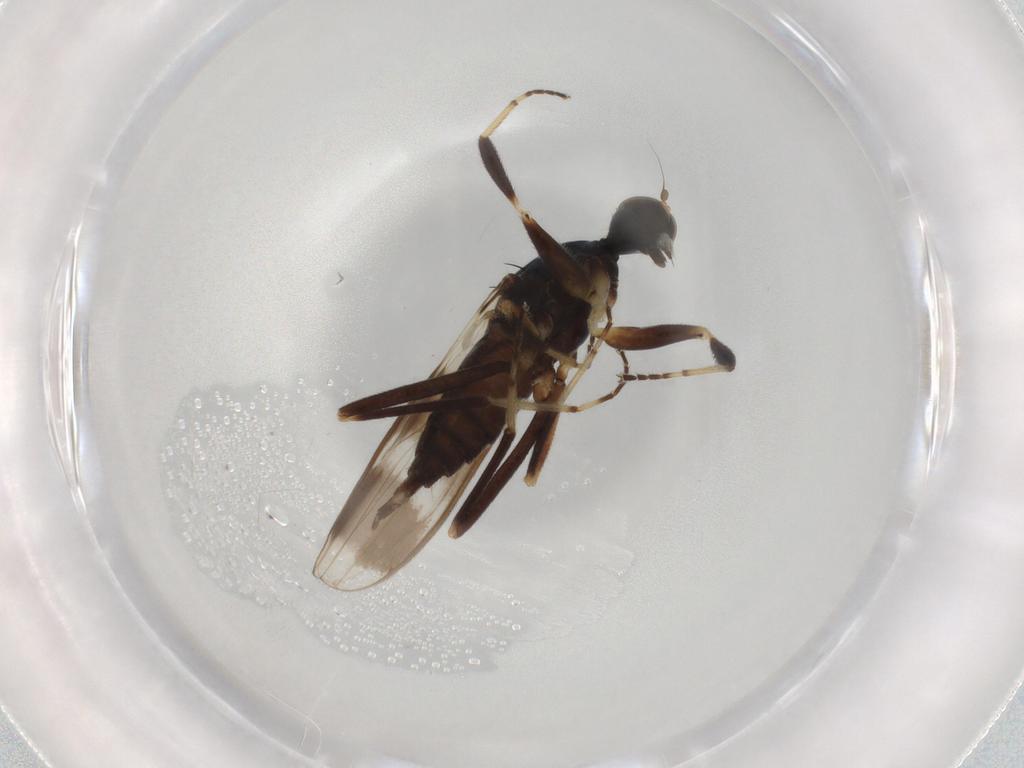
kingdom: Animalia
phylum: Arthropoda
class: Insecta
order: Diptera
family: Hybotidae
